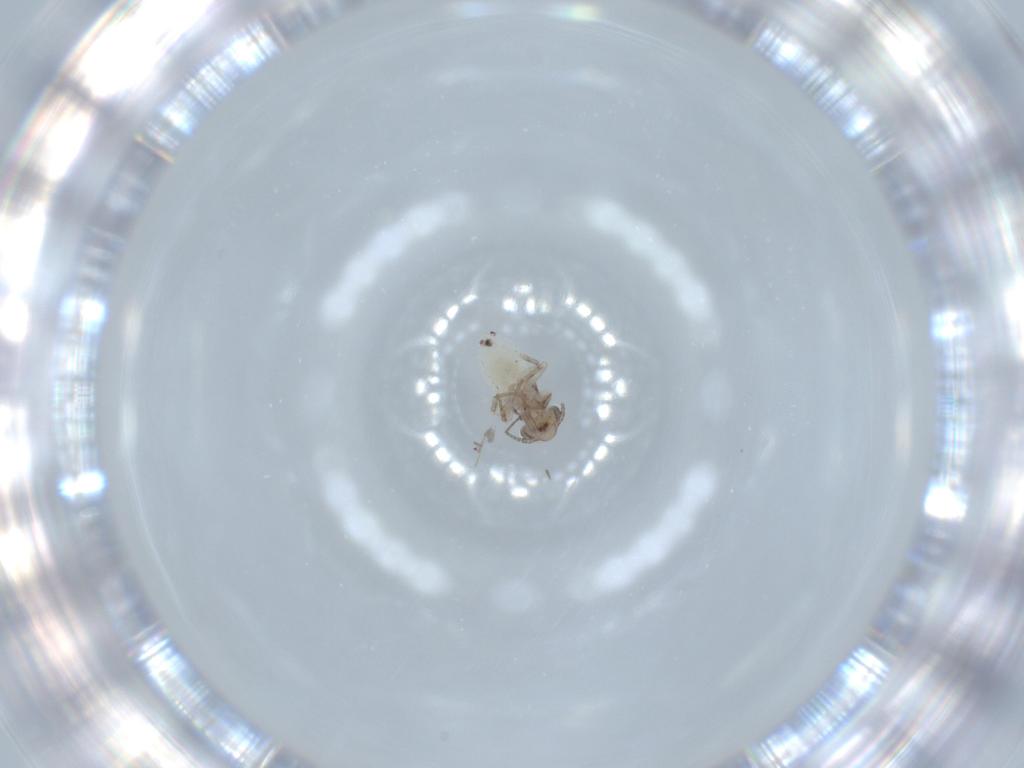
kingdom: Animalia
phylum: Arthropoda
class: Insecta
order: Psocodea
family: Lepidopsocidae
